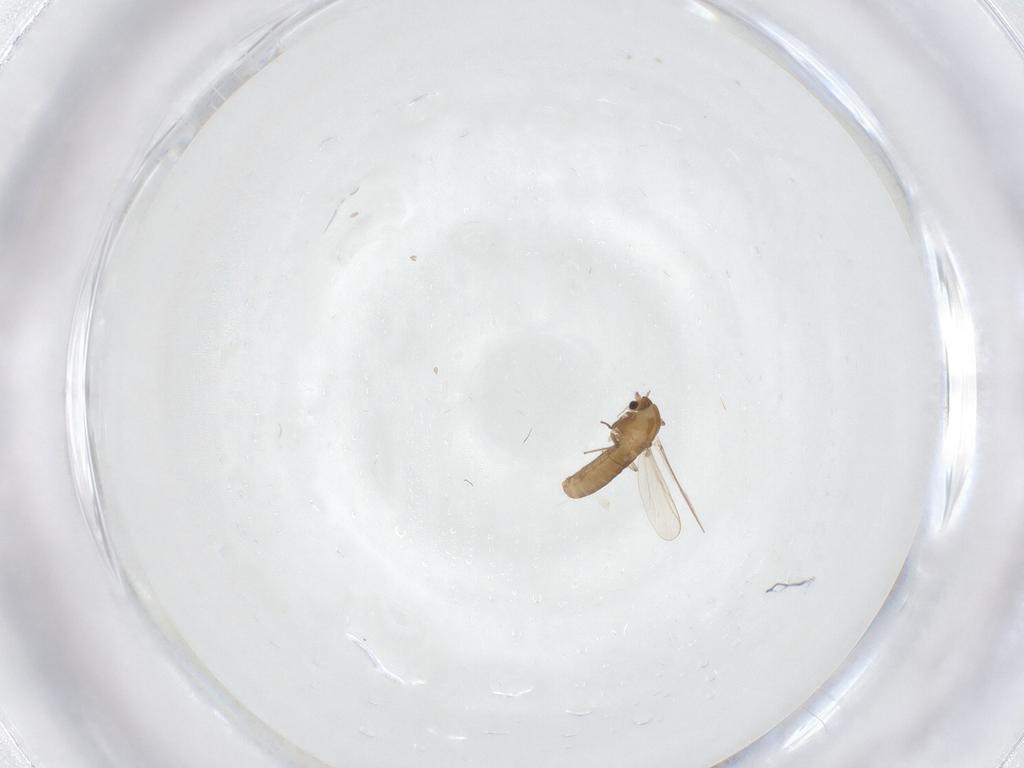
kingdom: Animalia
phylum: Arthropoda
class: Insecta
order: Diptera
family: Chironomidae
